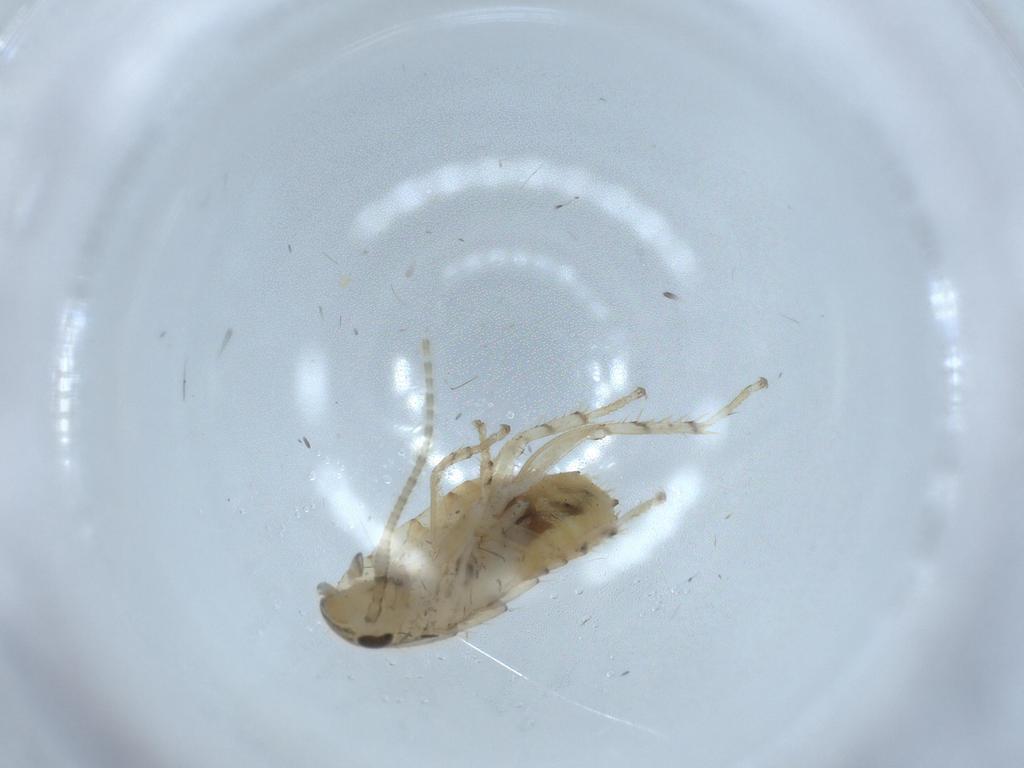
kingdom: Animalia
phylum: Arthropoda
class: Insecta
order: Blattodea
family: Ectobiidae
